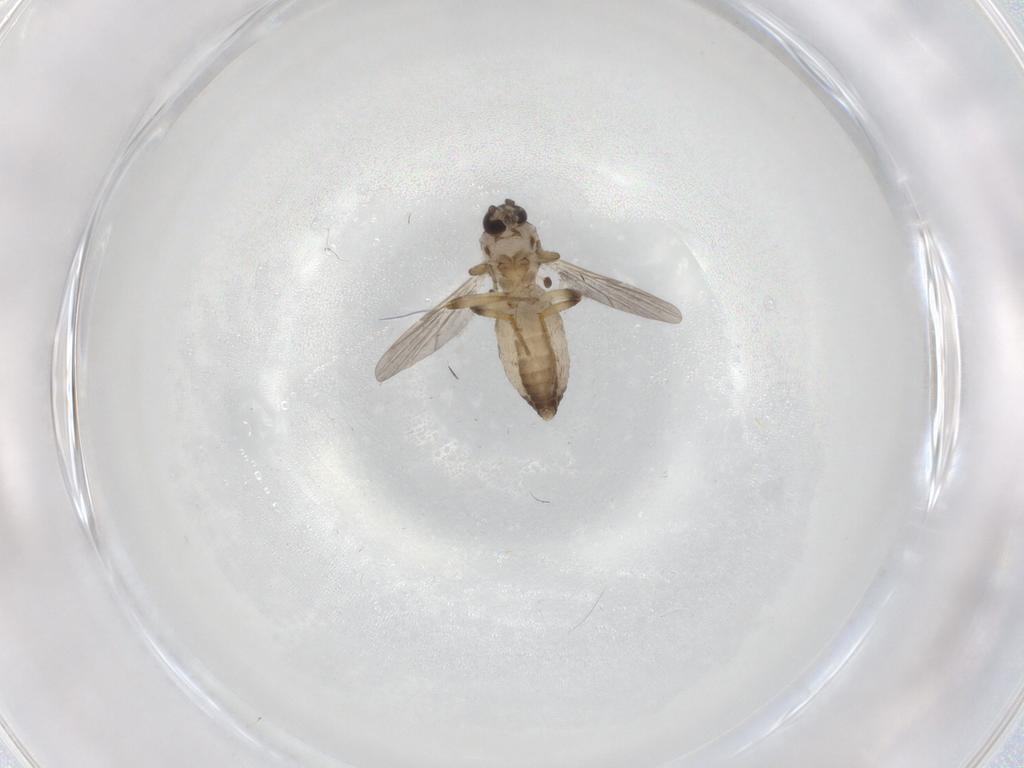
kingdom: Animalia
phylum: Arthropoda
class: Insecta
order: Diptera
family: Ceratopogonidae
